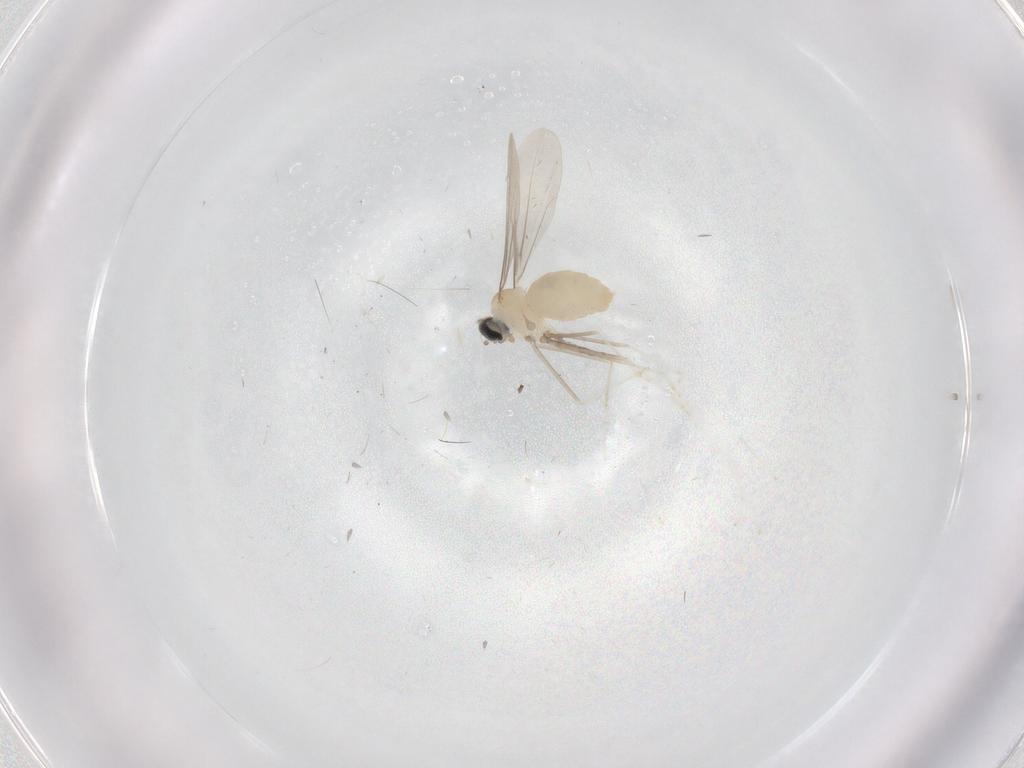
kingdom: Animalia
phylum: Arthropoda
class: Insecta
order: Diptera
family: Cecidomyiidae
